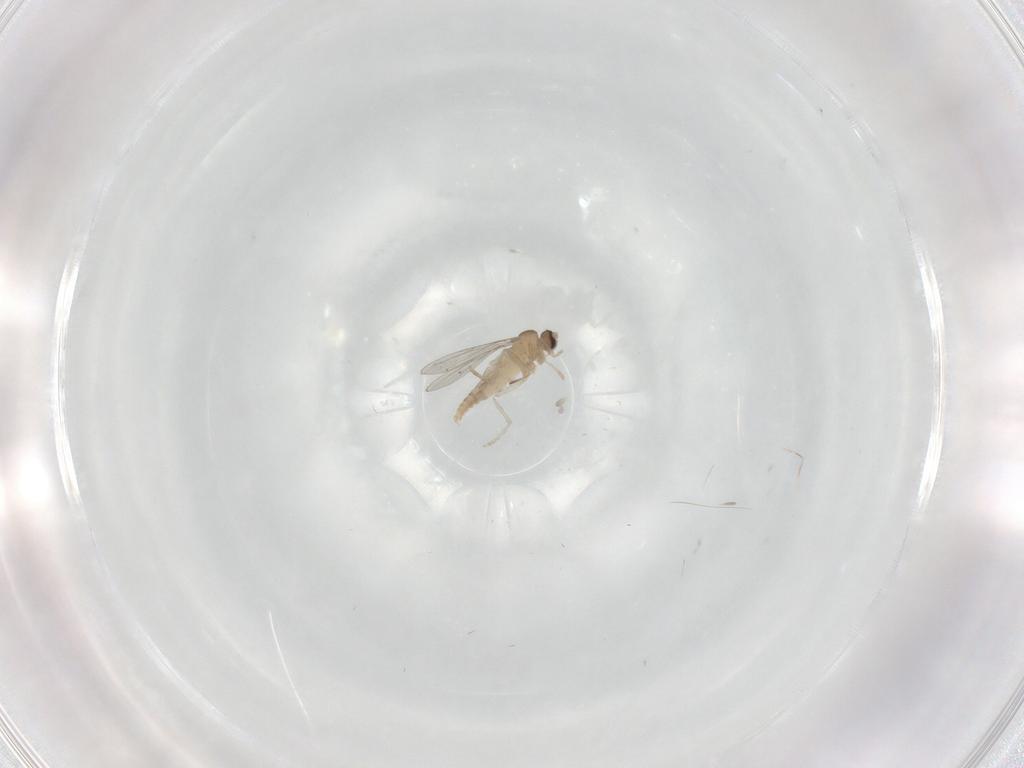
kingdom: Animalia
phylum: Arthropoda
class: Insecta
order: Diptera
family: Cecidomyiidae
